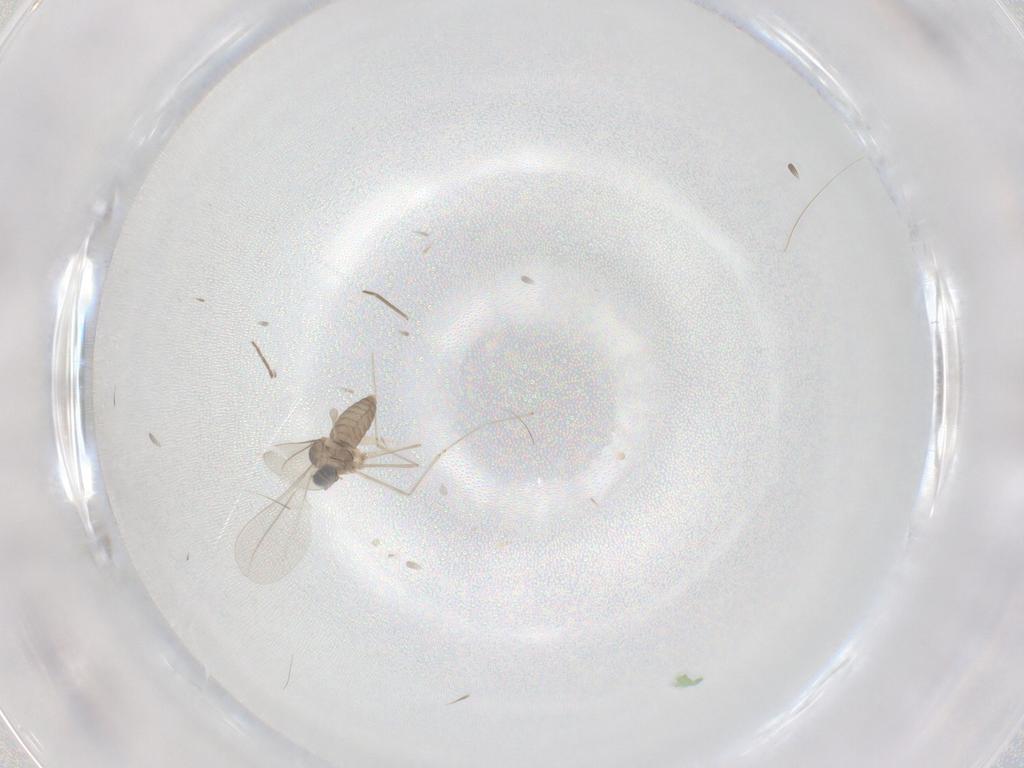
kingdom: Animalia
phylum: Arthropoda
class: Insecta
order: Diptera
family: Chironomidae
